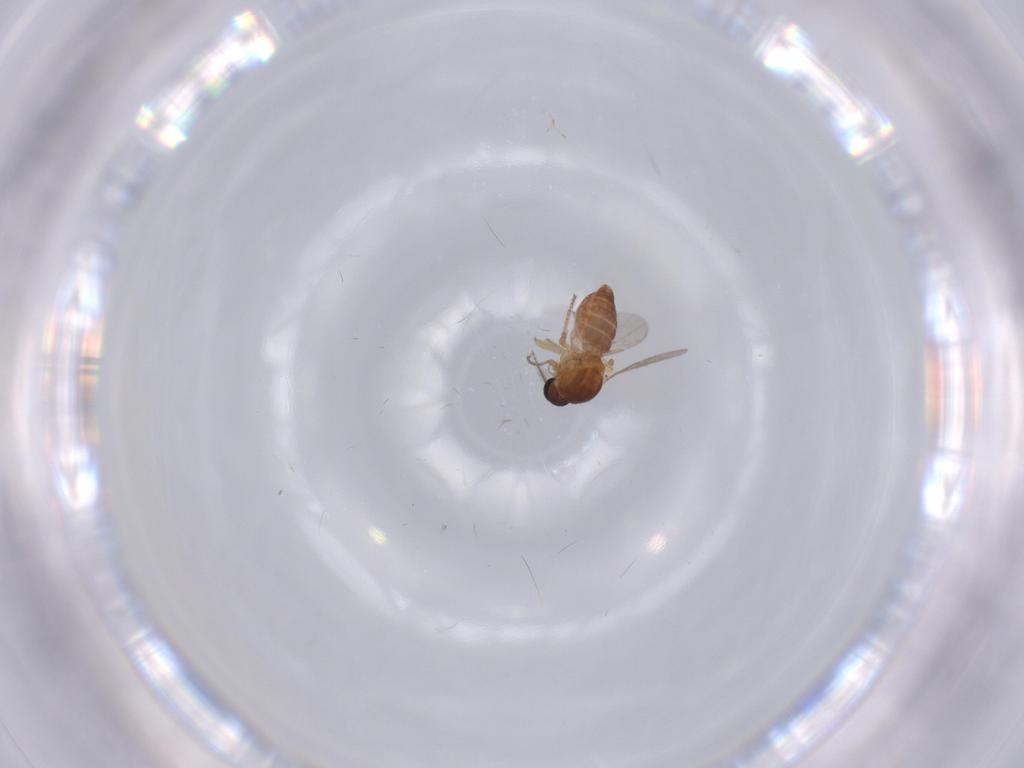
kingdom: Animalia
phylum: Arthropoda
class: Insecta
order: Diptera
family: Ceratopogonidae
